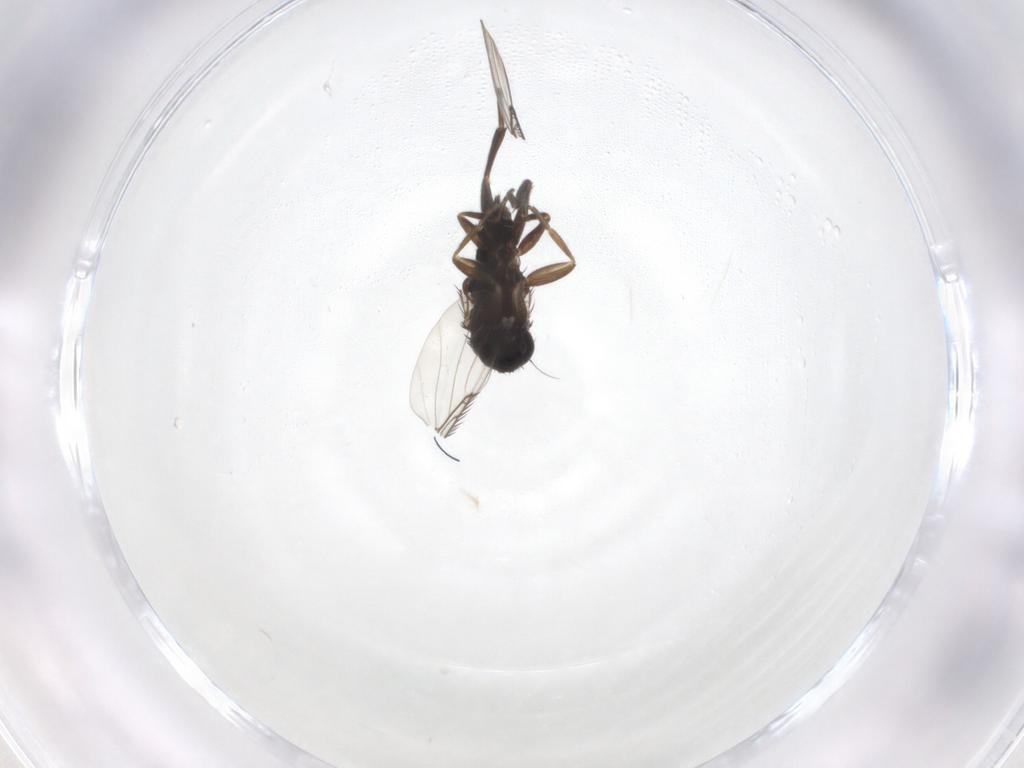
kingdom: Animalia
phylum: Arthropoda
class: Insecta
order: Diptera
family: Phoridae
